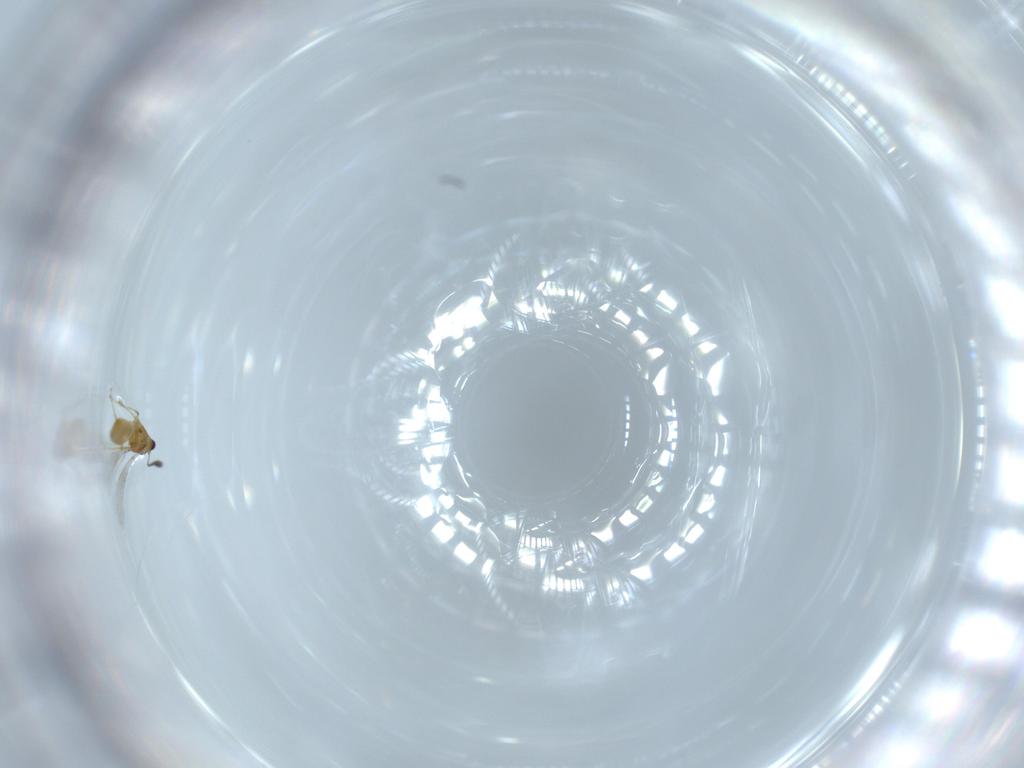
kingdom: Animalia
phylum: Arthropoda
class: Insecta
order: Hymenoptera
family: Mymaridae
